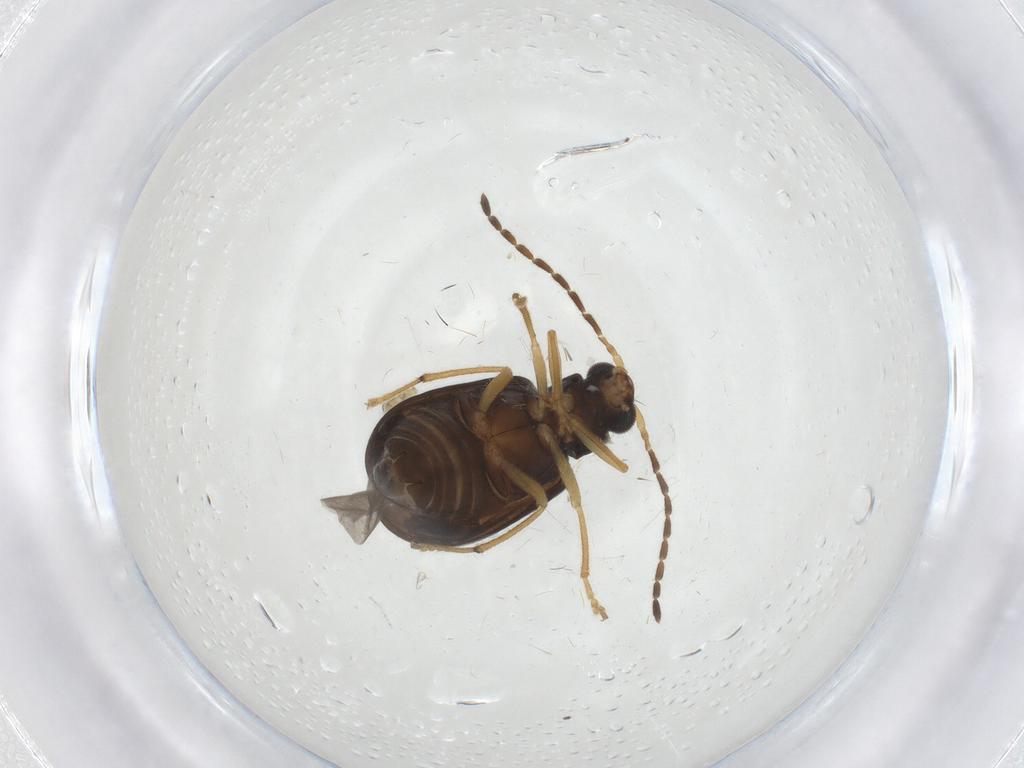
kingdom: Animalia
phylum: Arthropoda
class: Insecta
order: Coleoptera
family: Chrysomelidae
